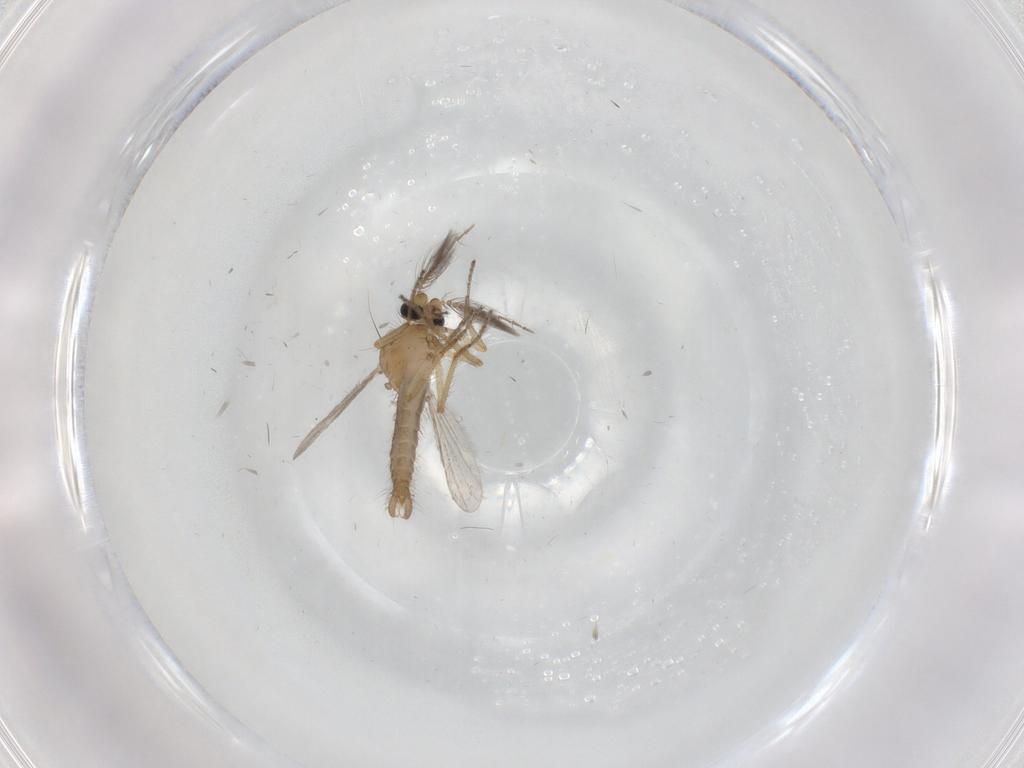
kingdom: Animalia
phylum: Arthropoda
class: Insecta
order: Diptera
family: Ceratopogonidae
